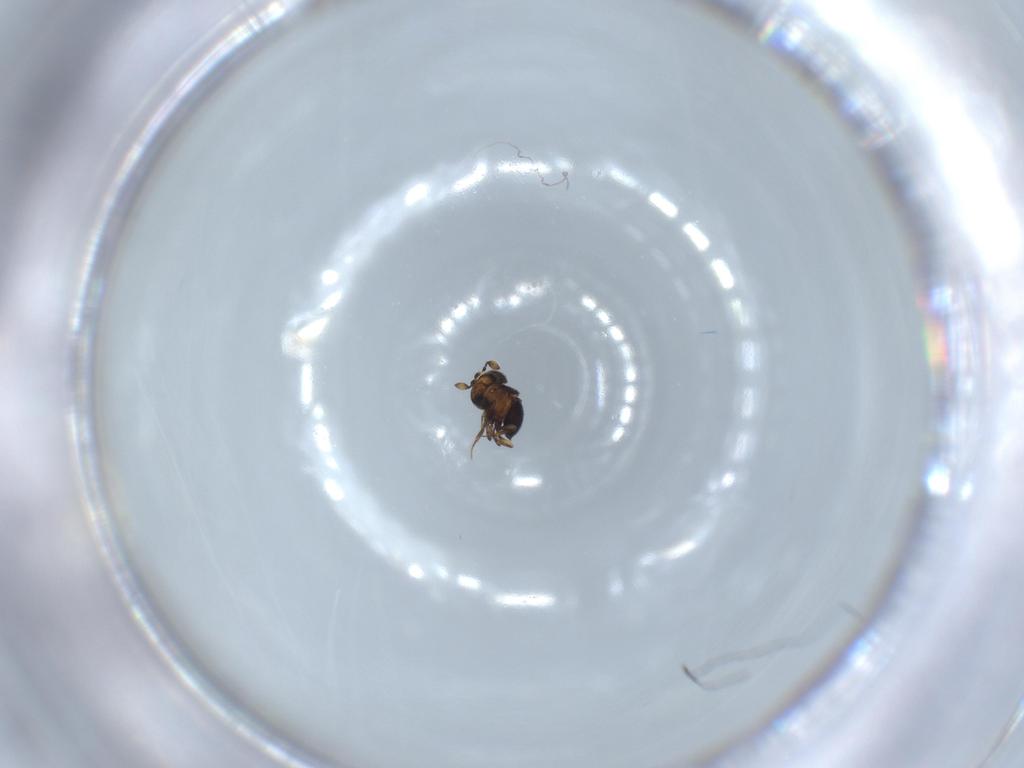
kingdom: Animalia
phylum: Arthropoda
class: Insecta
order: Hymenoptera
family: Scelionidae
